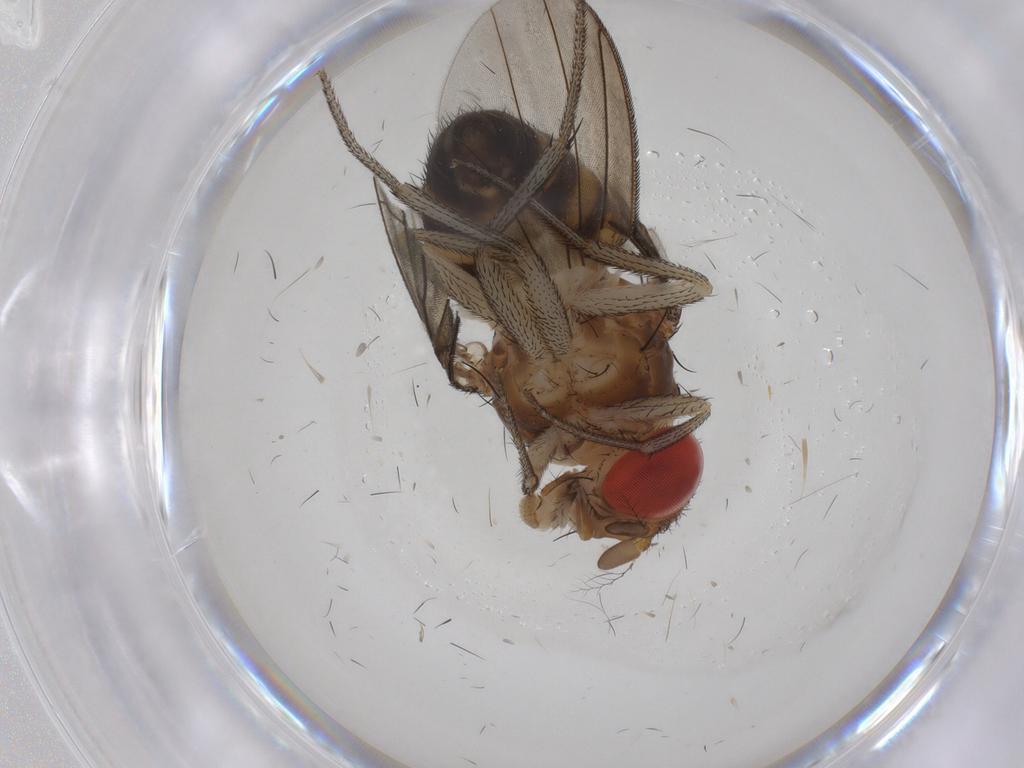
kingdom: Animalia
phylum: Arthropoda
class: Insecta
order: Diptera
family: Drosophilidae
